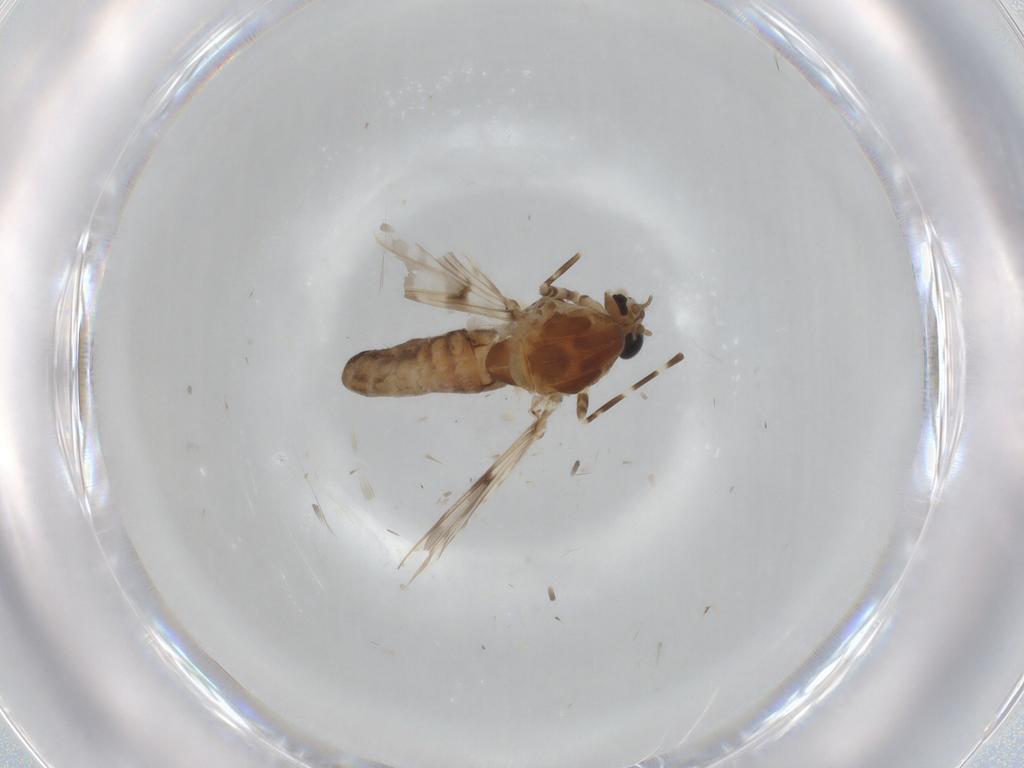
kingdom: Animalia
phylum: Arthropoda
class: Insecta
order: Diptera
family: Chironomidae
